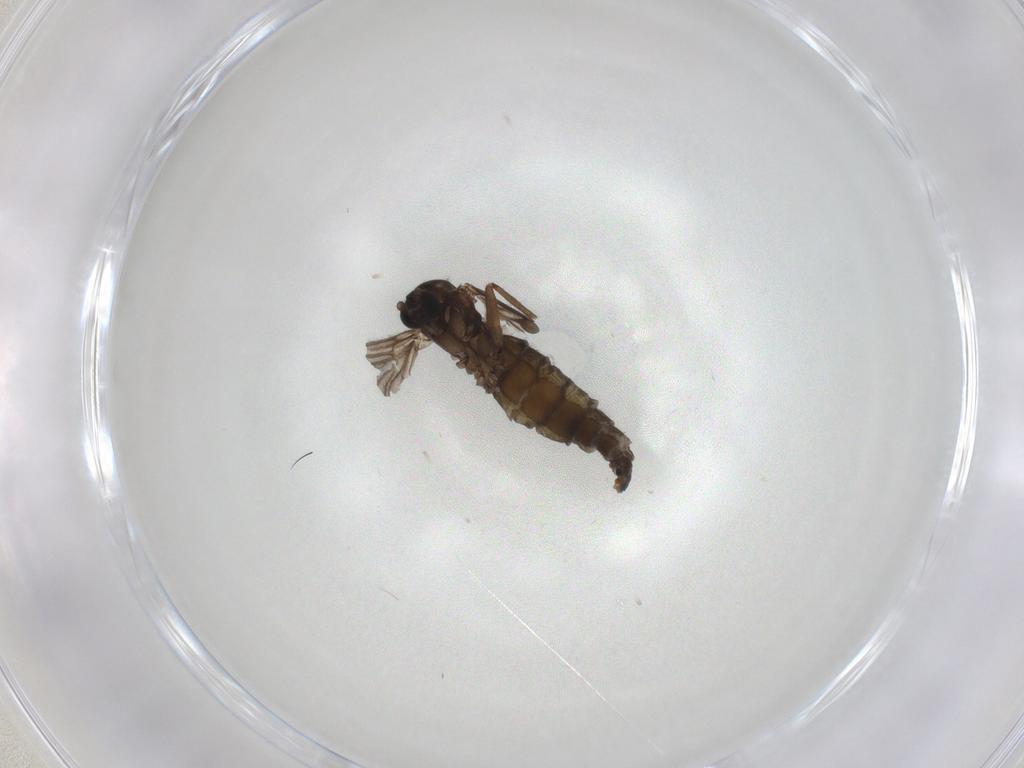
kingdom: Animalia
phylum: Arthropoda
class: Insecta
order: Diptera
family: Sciaridae
